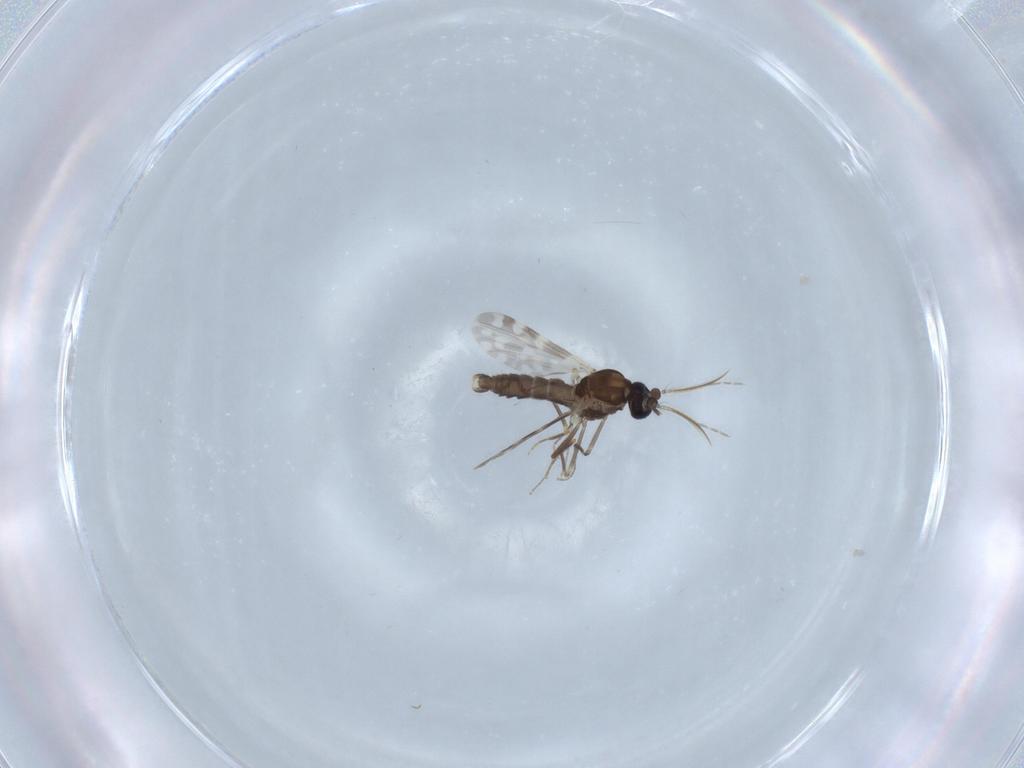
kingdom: Animalia
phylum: Arthropoda
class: Insecta
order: Diptera
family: Ceratopogonidae
